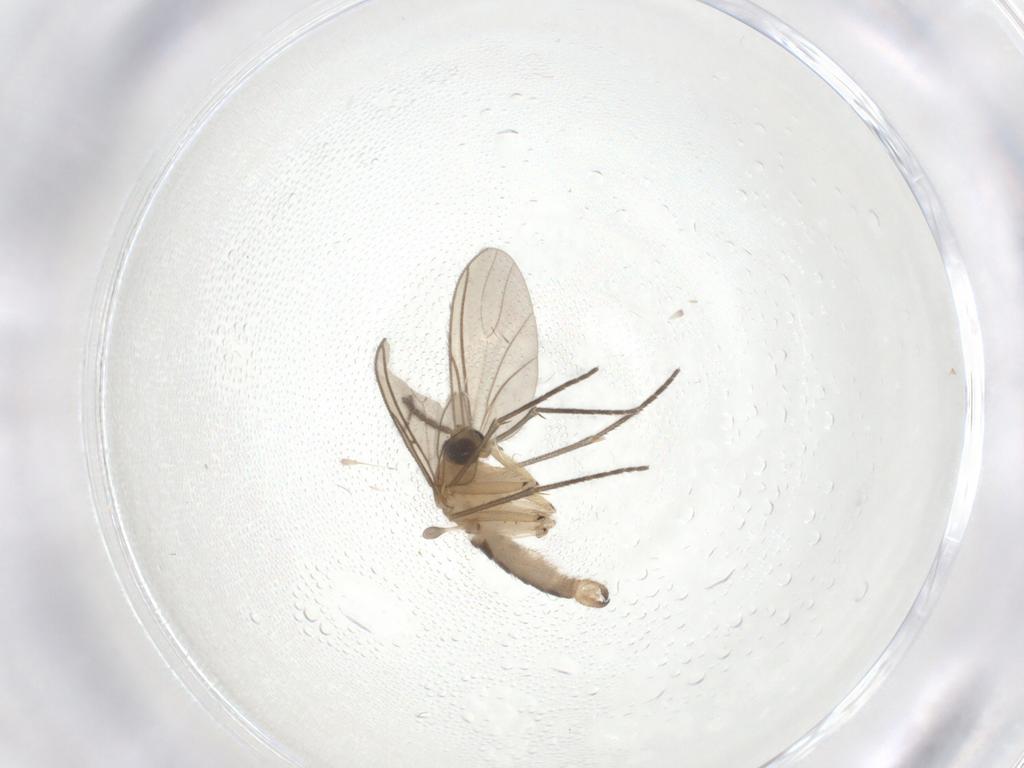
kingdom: Animalia
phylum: Arthropoda
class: Insecta
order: Diptera
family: Sciaridae
